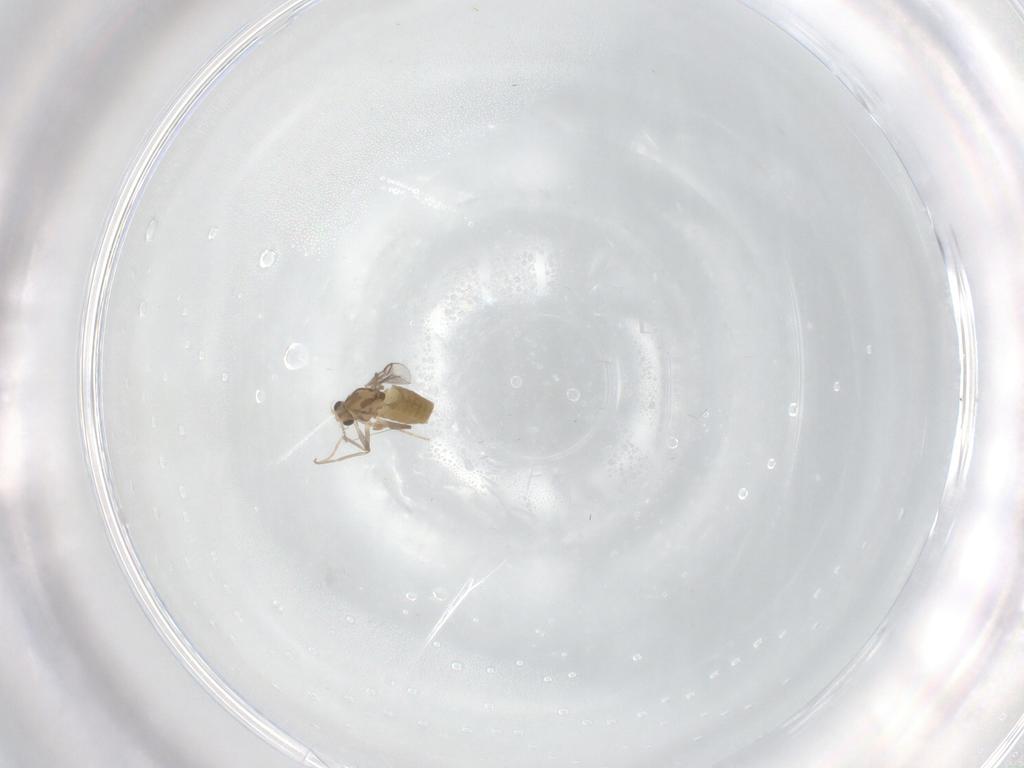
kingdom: Animalia
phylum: Arthropoda
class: Insecta
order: Diptera
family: Chironomidae
